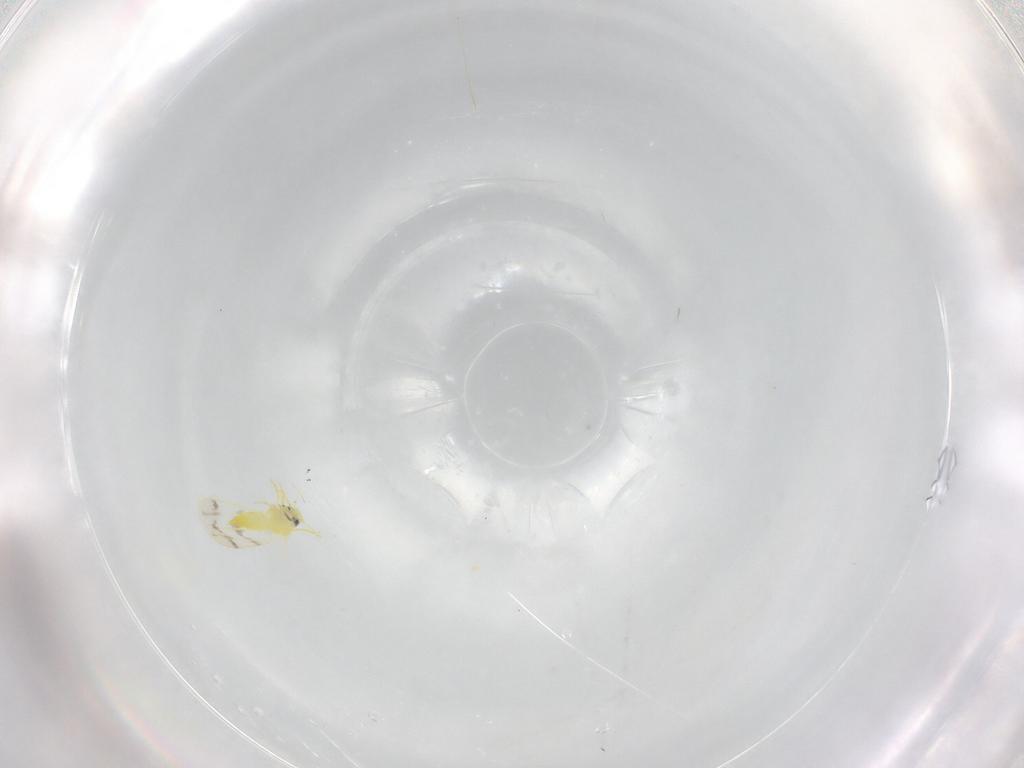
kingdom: Animalia
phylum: Arthropoda
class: Insecta
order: Hemiptera
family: Aleyrodidae
